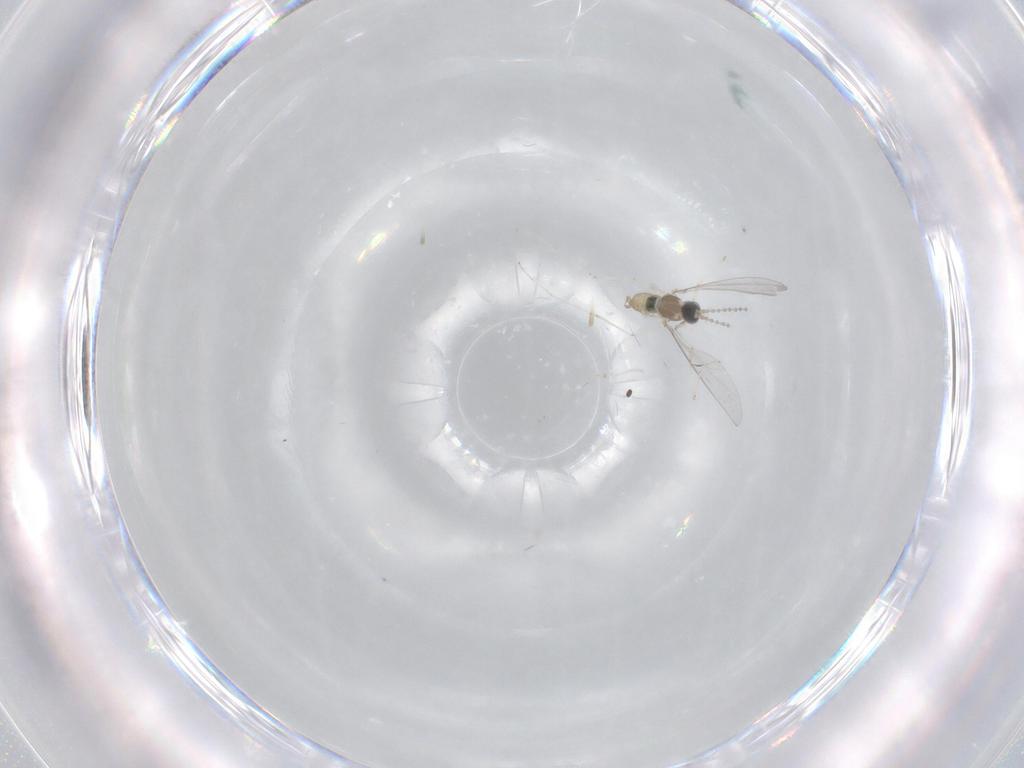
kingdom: Animalia
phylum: Arthropoda
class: Insecta
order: Diptera
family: Cecidomyiidae
